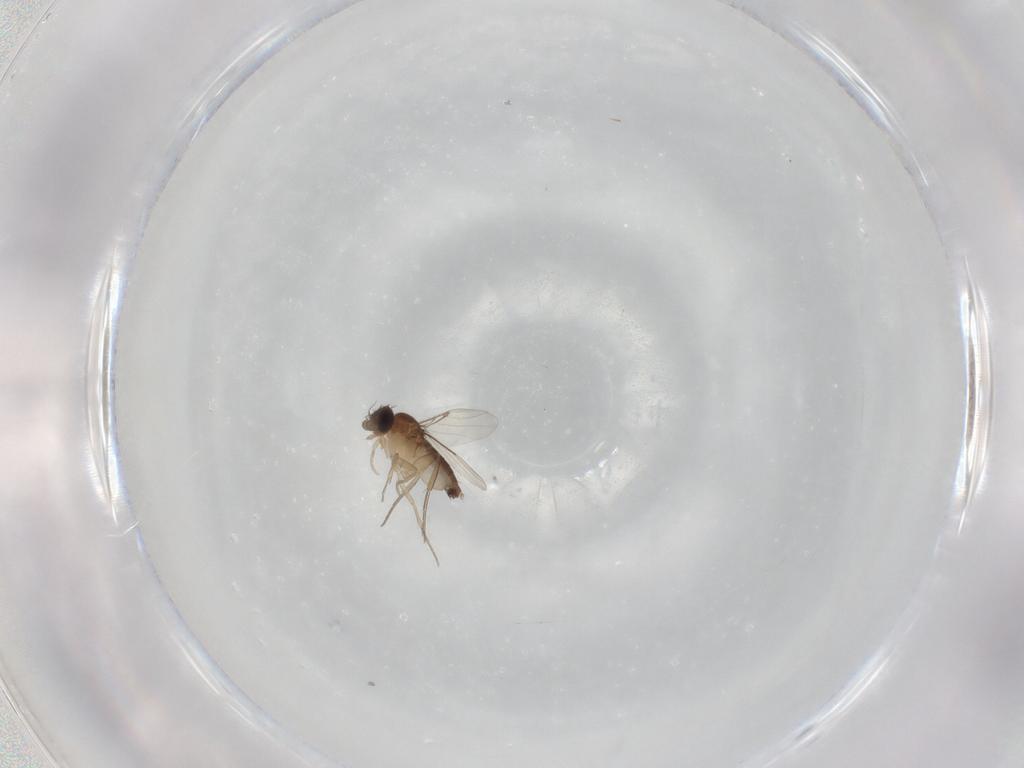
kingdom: Animalia
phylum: Arthropoda
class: Insecta
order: Diptera
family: Phoridae
